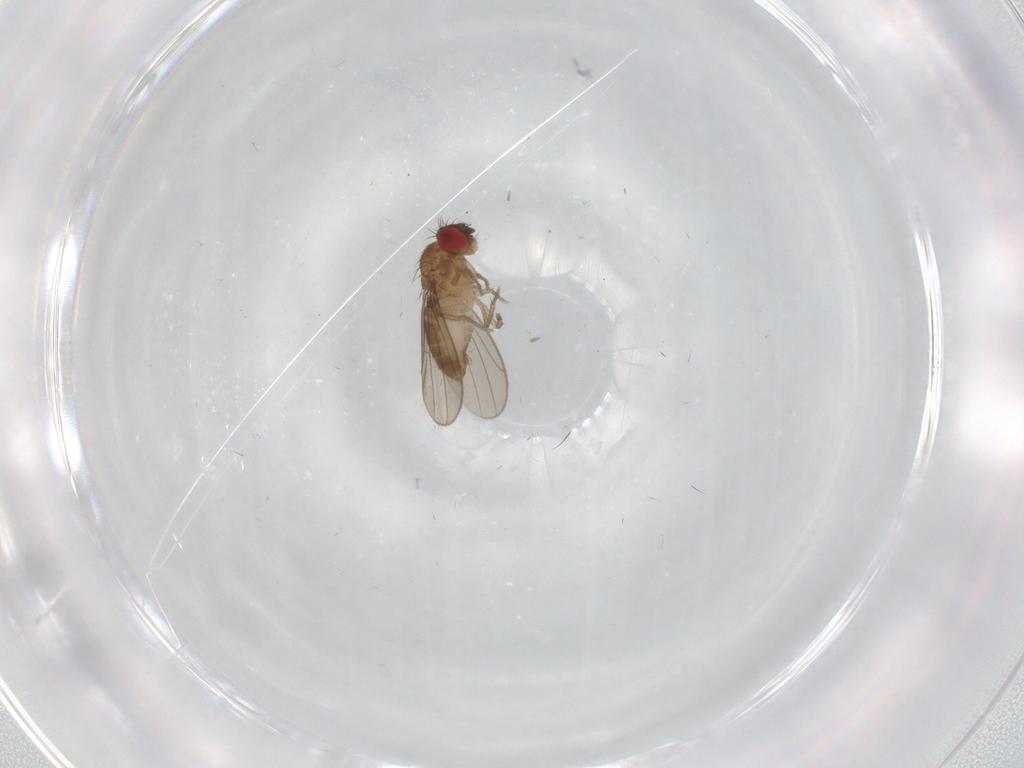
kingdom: Animalia
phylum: Arthropoda
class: Insecta
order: Diptera
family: Drosophilidae
